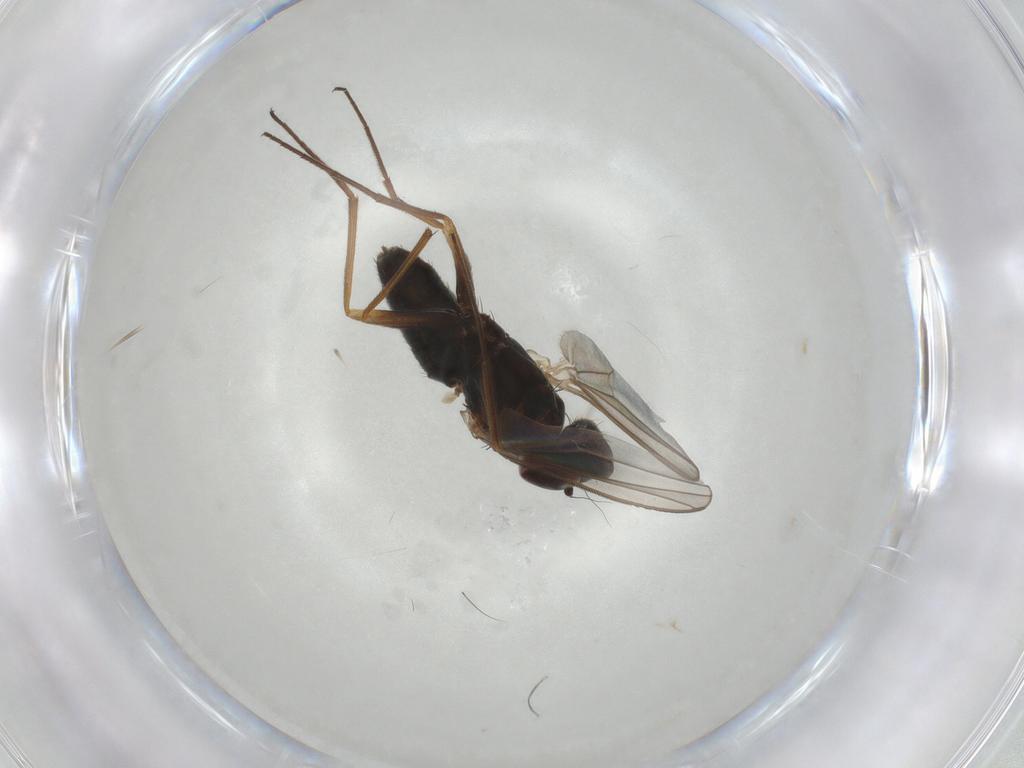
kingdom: Animalia
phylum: Arthropoda
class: Insecta
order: Diptera
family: Dolichopodidae
